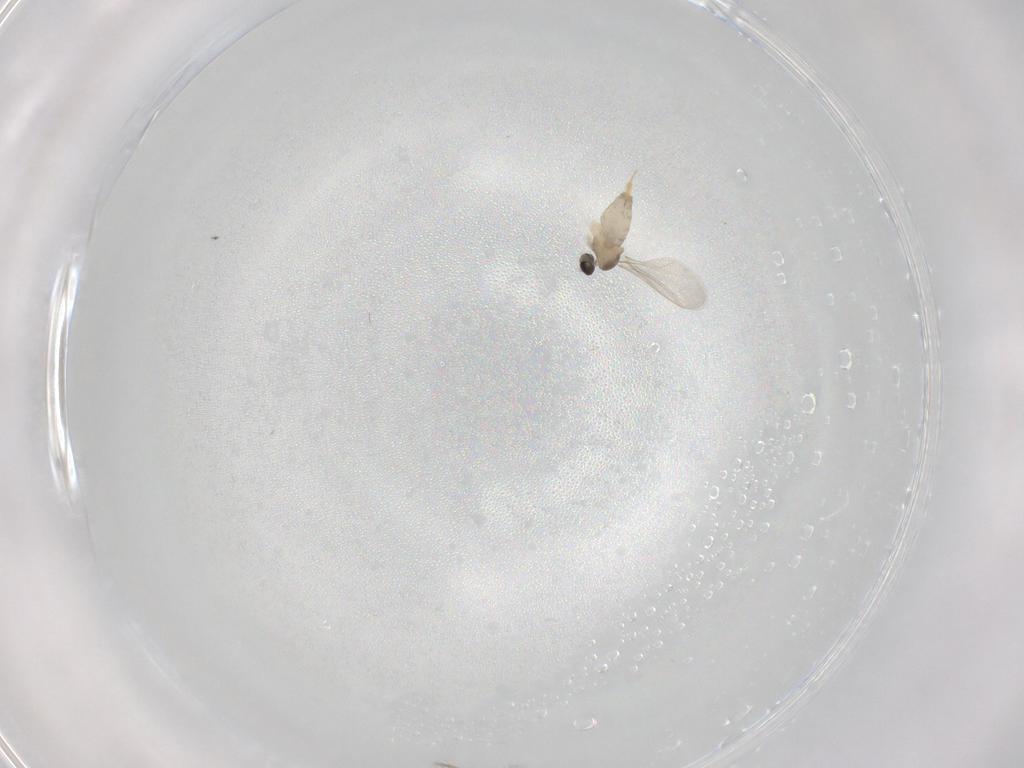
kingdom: Animalia
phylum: Arthropoda
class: Insecta
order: Diptera
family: Cecidomyiidae
